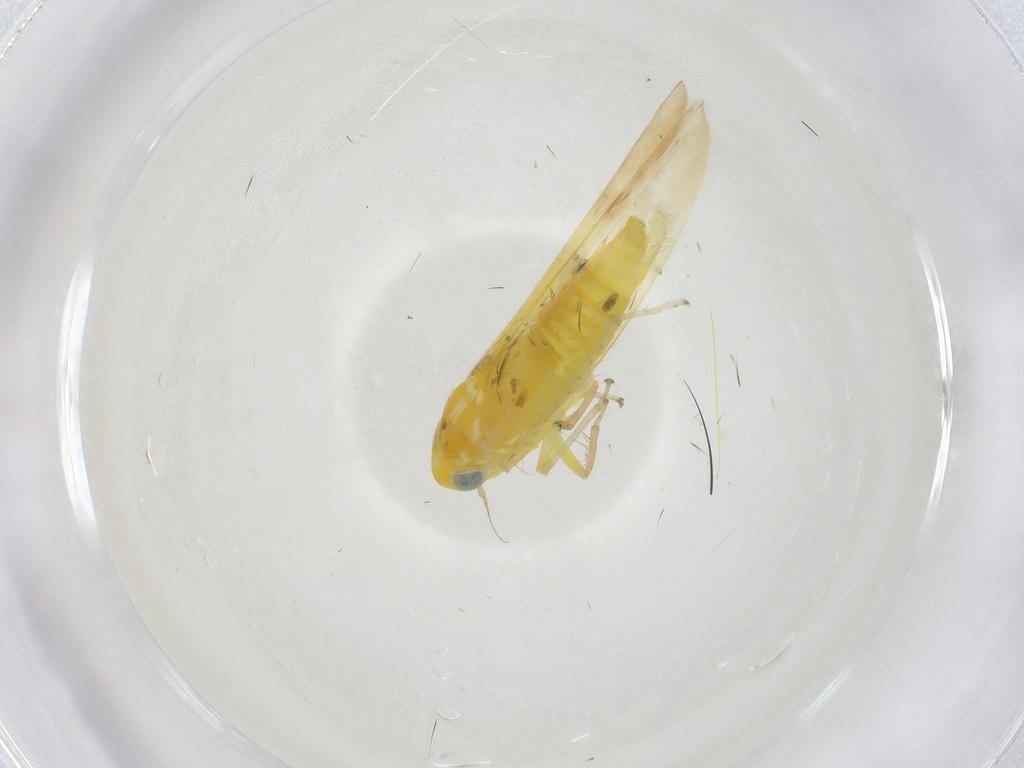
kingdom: Animalia
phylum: Arthropoda
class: Insecta
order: Hemiptera
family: Cicadellidae
